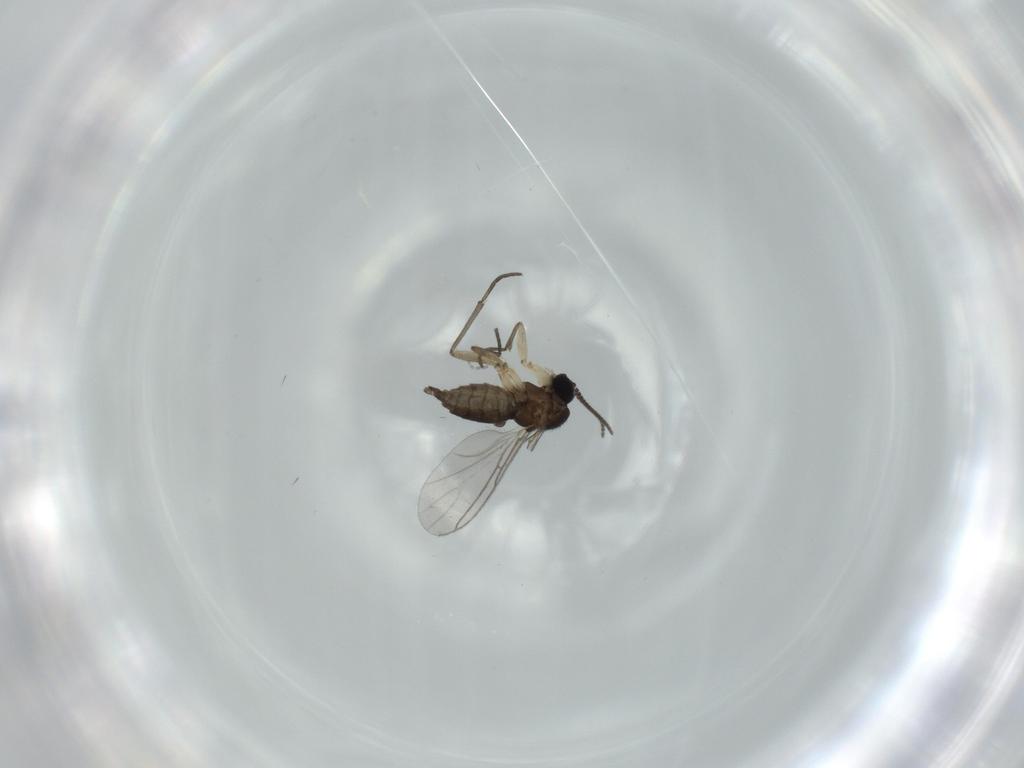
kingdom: Animalia
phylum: Arthropoda
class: Insecta
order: Diptera
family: Sciaridae
